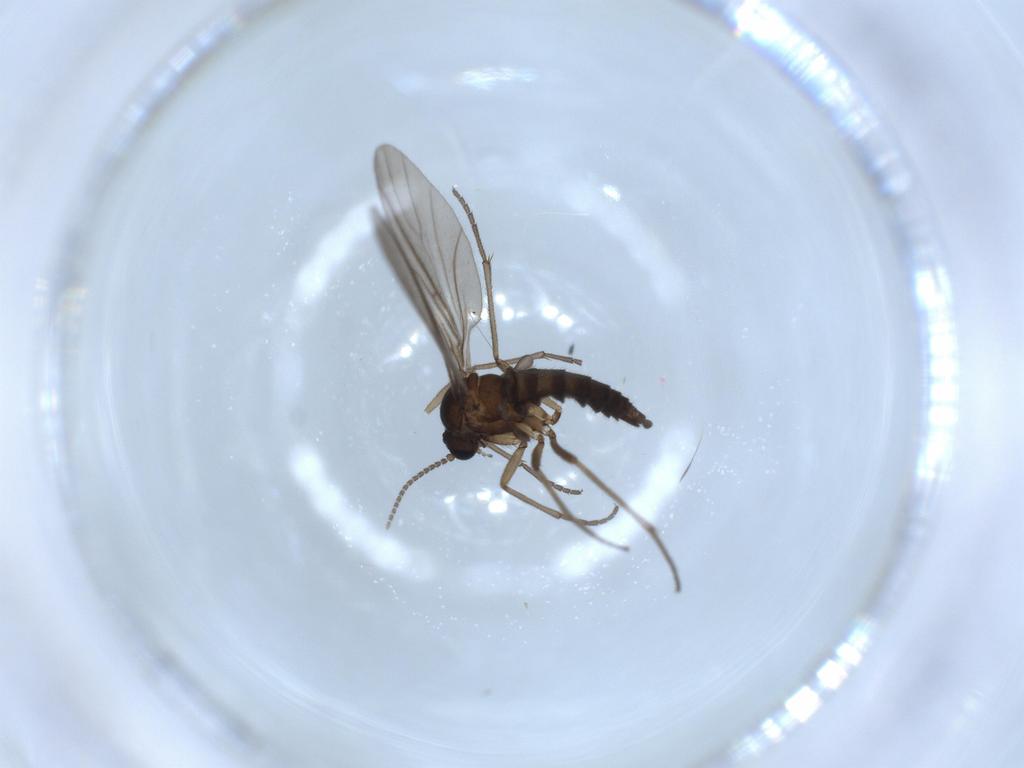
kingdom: Animalia
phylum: Arthropoda
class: Insecta
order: Diptera
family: Sciaridae
